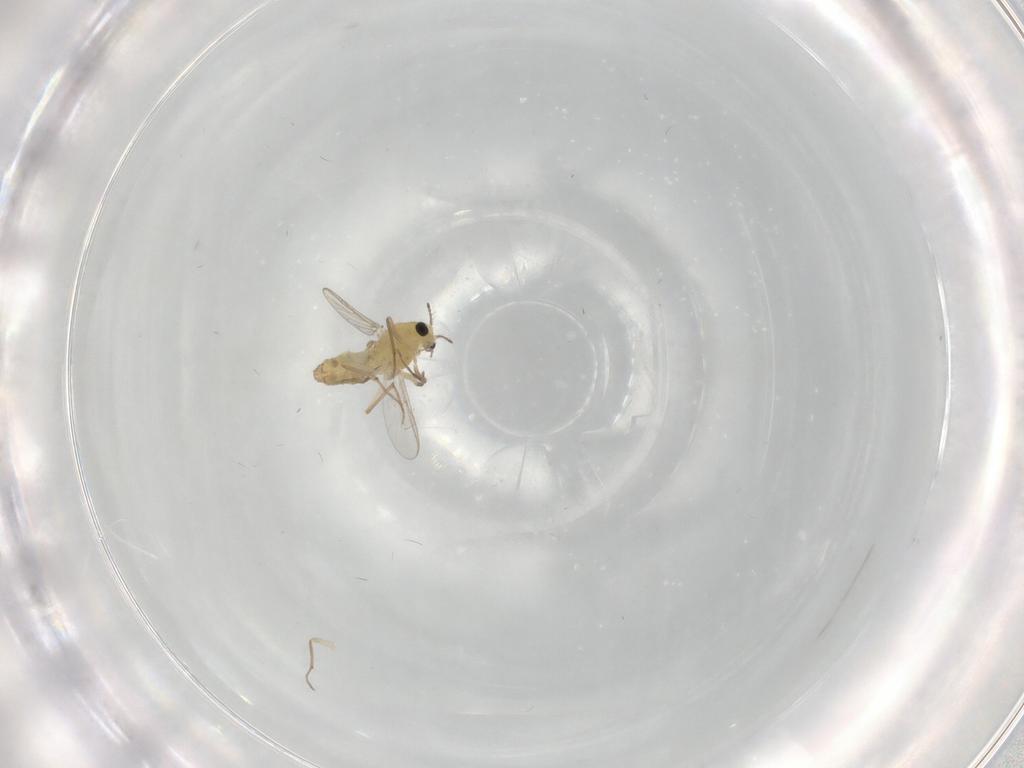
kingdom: Animalia
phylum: Arthropoda
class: Insecta
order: Diptera
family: Chironomidae
